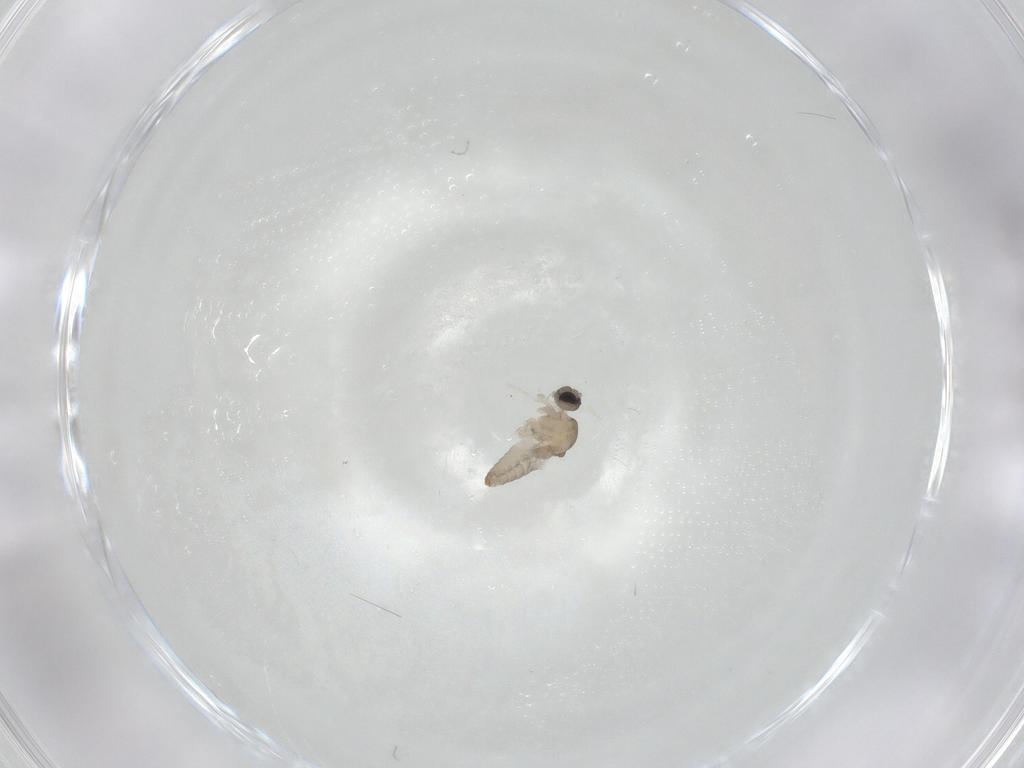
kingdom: Animalia
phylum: Arthropoda
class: Insecta
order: Diptera
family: Cecidomyiidae
